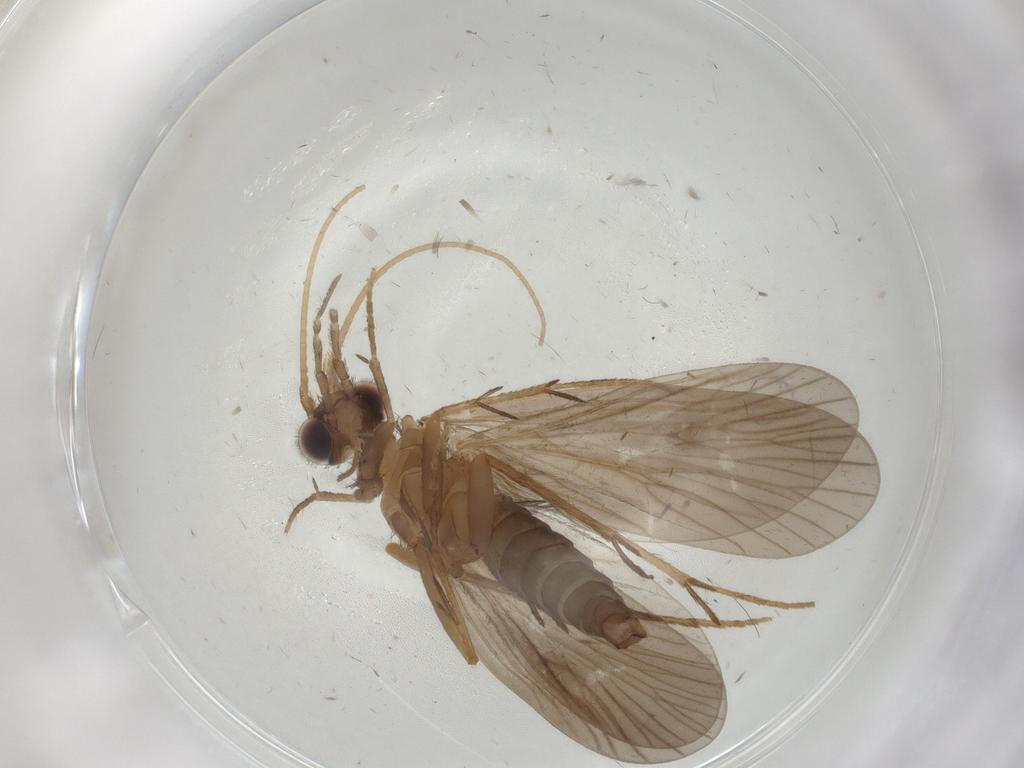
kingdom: Animalia
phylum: Arthropoda
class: Insecta
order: Trichoptera
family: Philopotamidae
